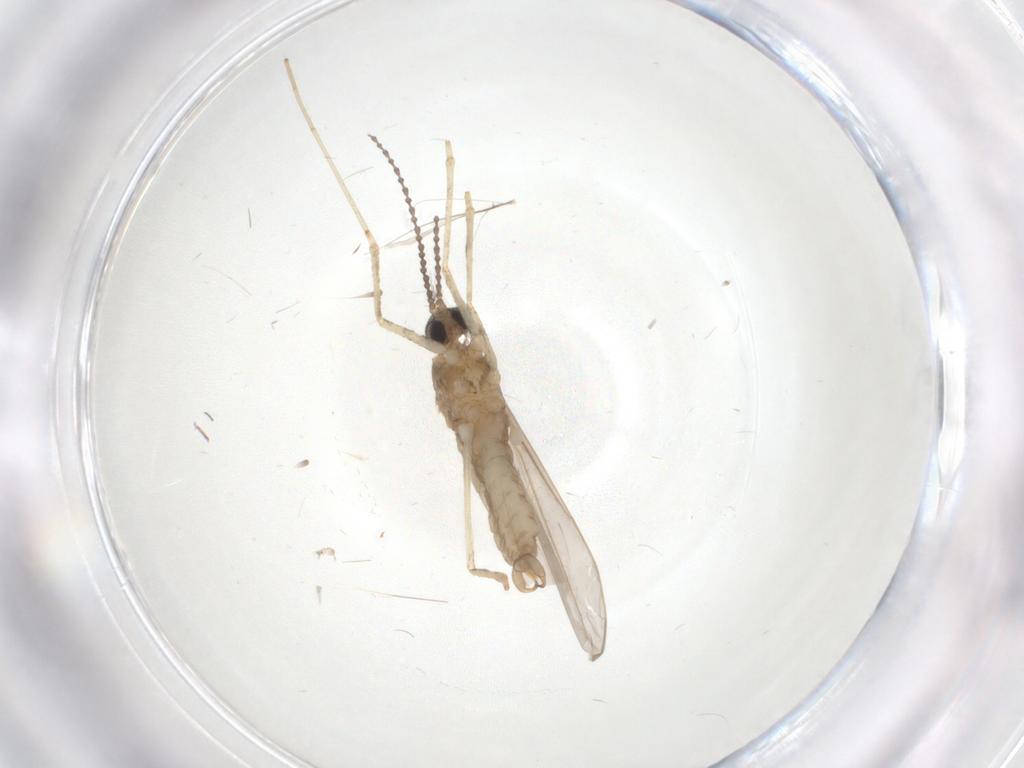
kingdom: Animalia
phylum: Arthropoda
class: Insecta
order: Diptera
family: Cecidomyiidae
